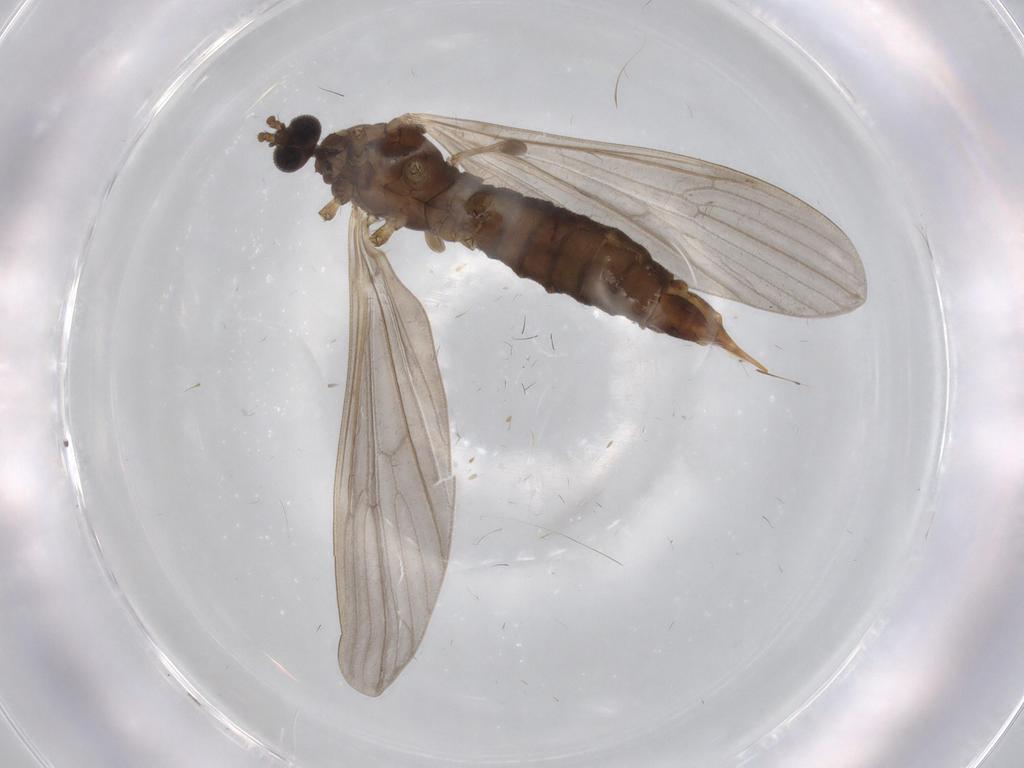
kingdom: Animalia
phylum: Arthropoda
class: Insecta
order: Diptera
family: Limoniidae
